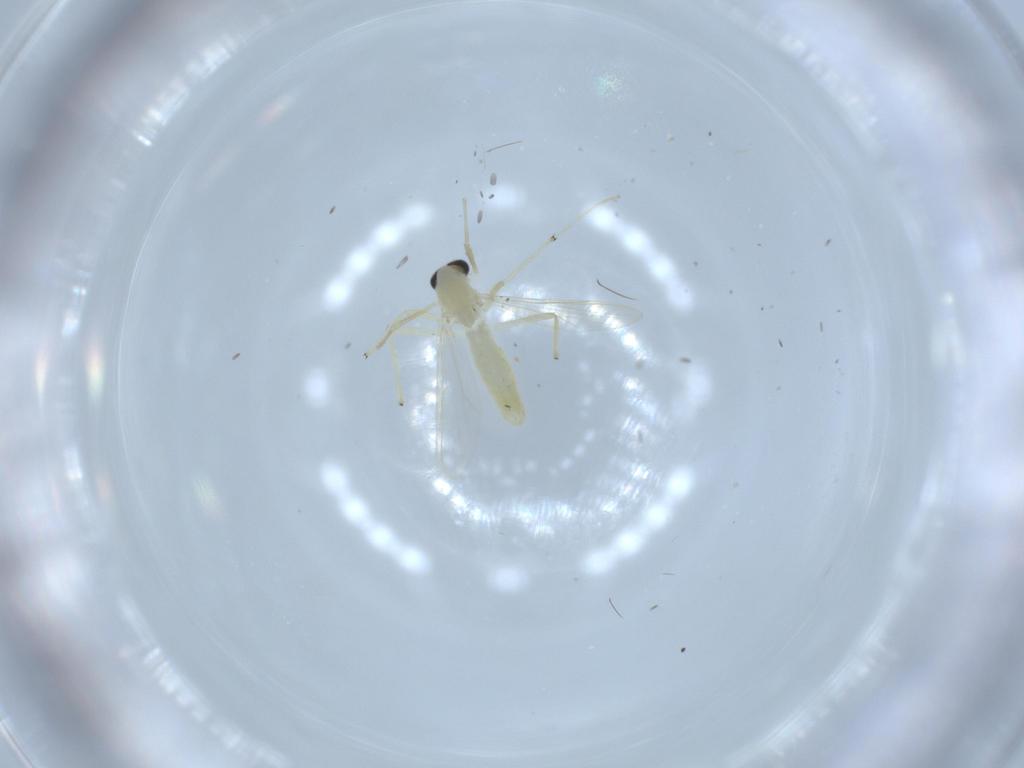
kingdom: Animalia
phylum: Arthropoda
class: Insecta
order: Diptera
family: Chironomidae
